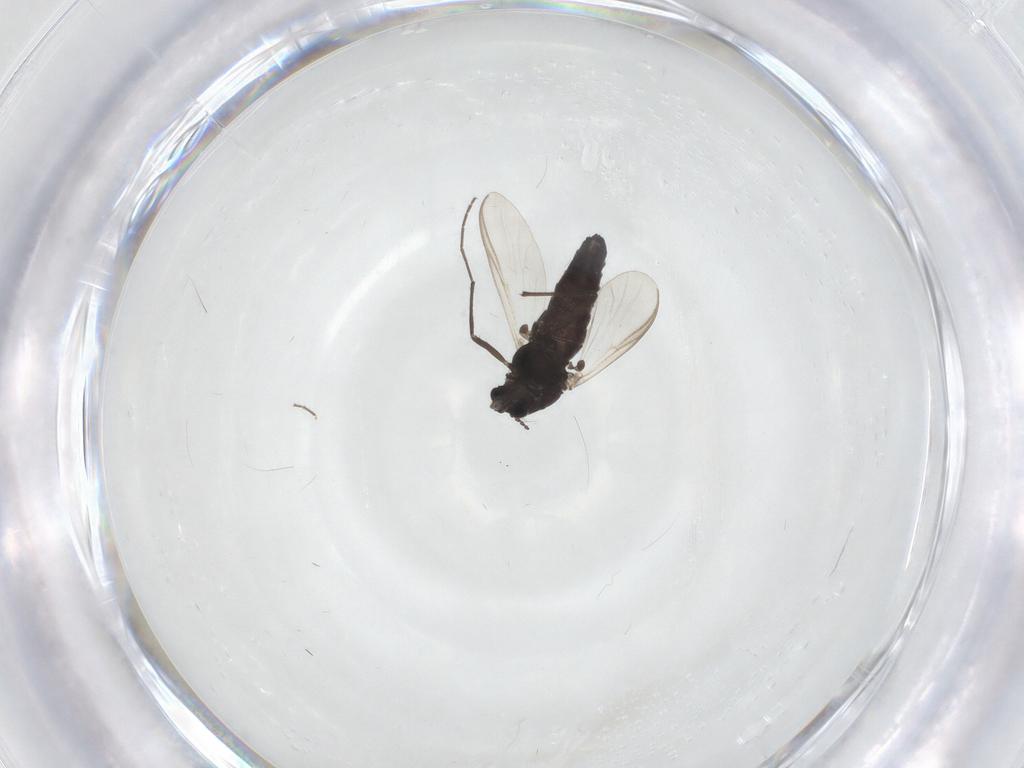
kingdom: Animalia
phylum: Arthropoda
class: Insecta
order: Diptera
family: Chironomidae
